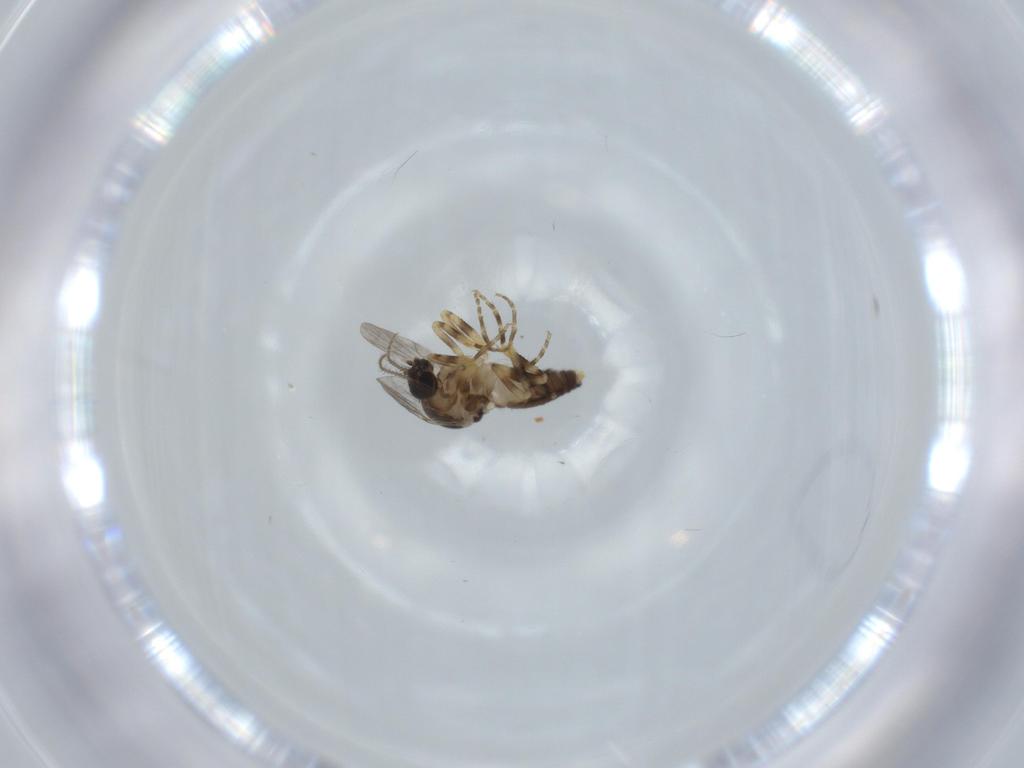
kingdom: Animalia
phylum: Arthropoda
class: Insecta
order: Diptera
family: Ceratopogonidae
